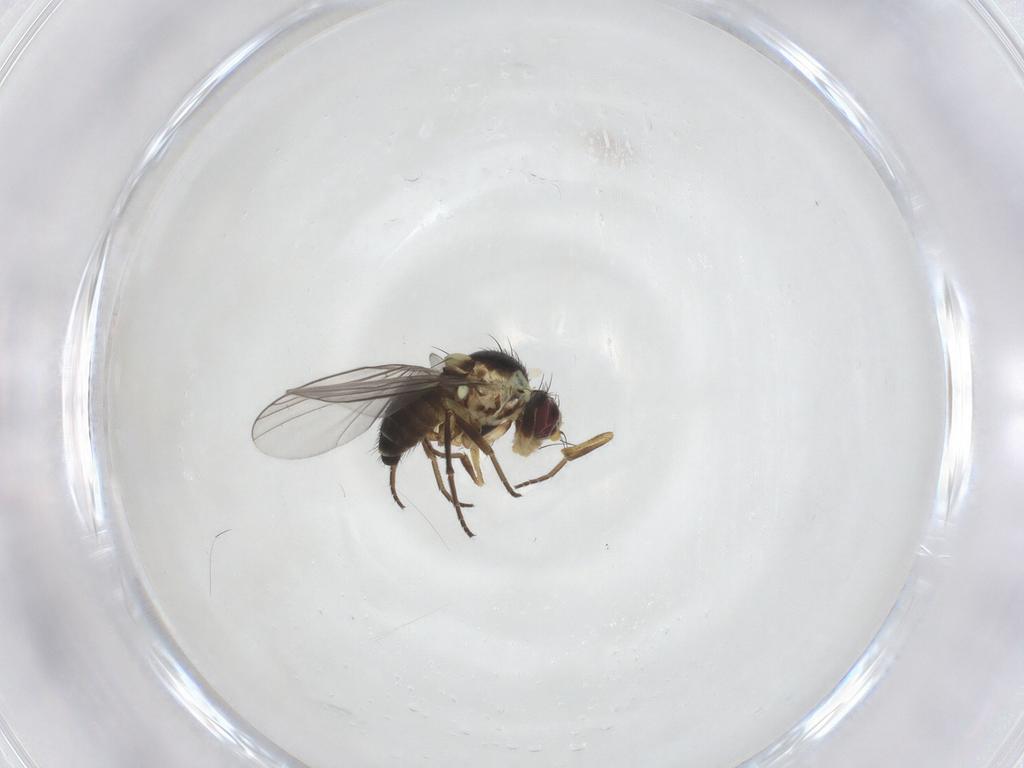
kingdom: Animalia
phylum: Arthropoda
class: Insecta
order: Diptera
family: Agromyzidae
